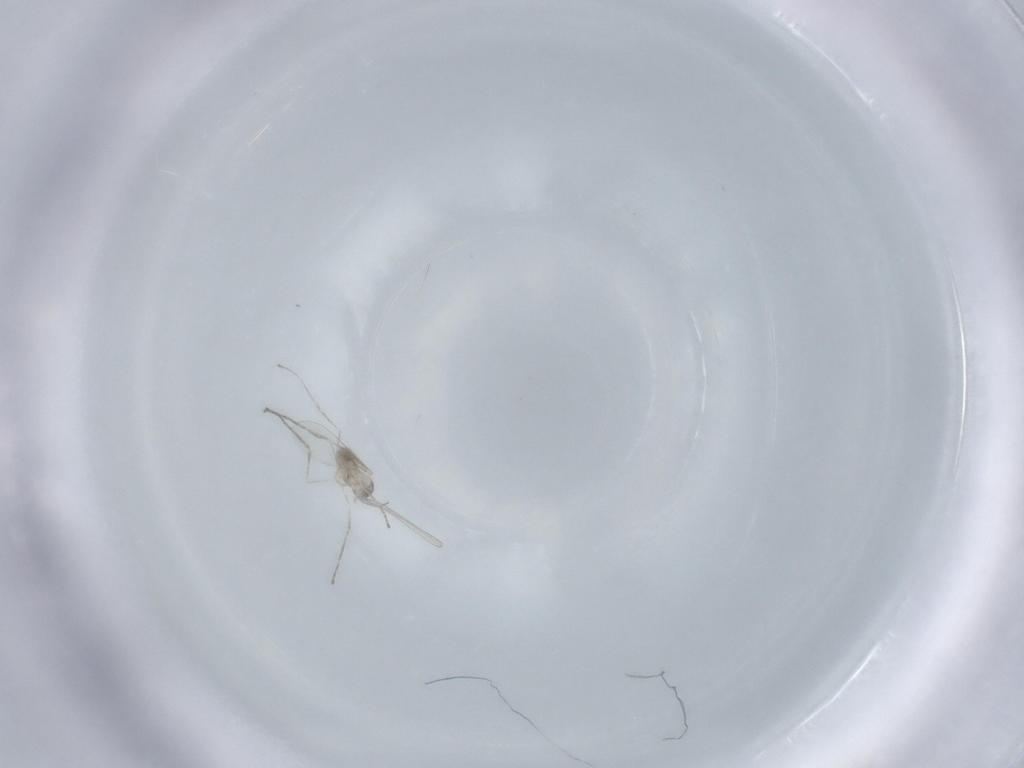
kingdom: Animalia
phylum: Arthropoda
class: Insecta
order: Diptera
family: Cecidomyiidae
